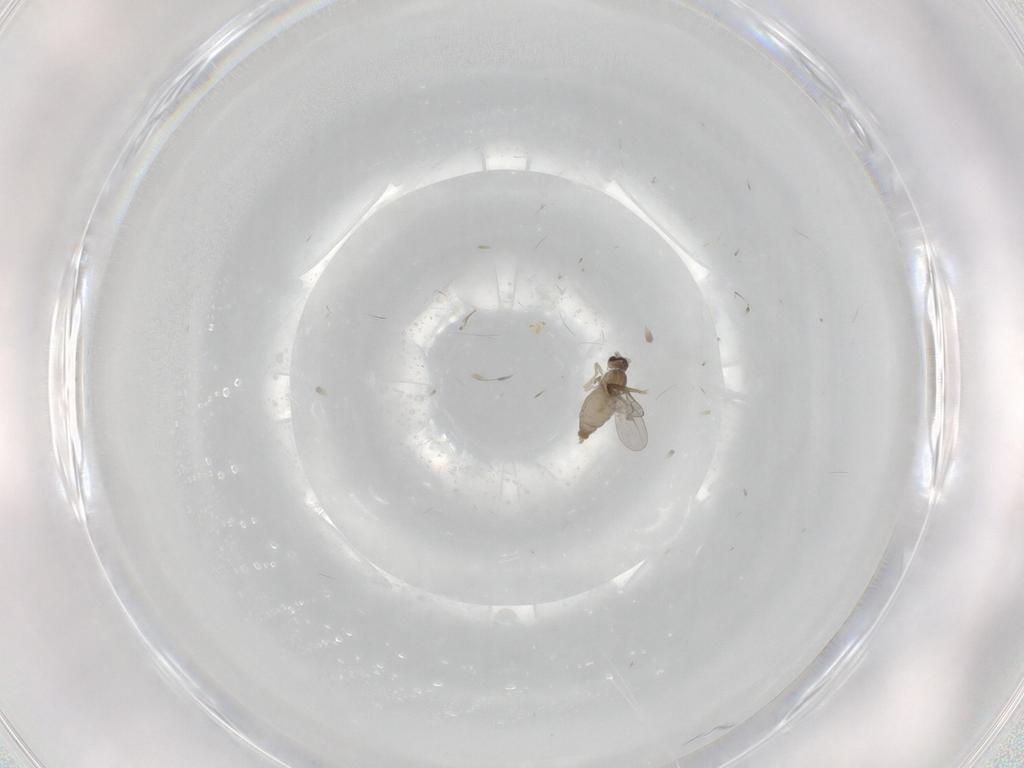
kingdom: Animalia
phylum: Arthropoda
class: Insecta
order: Diptera
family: Cecidomyiidae
